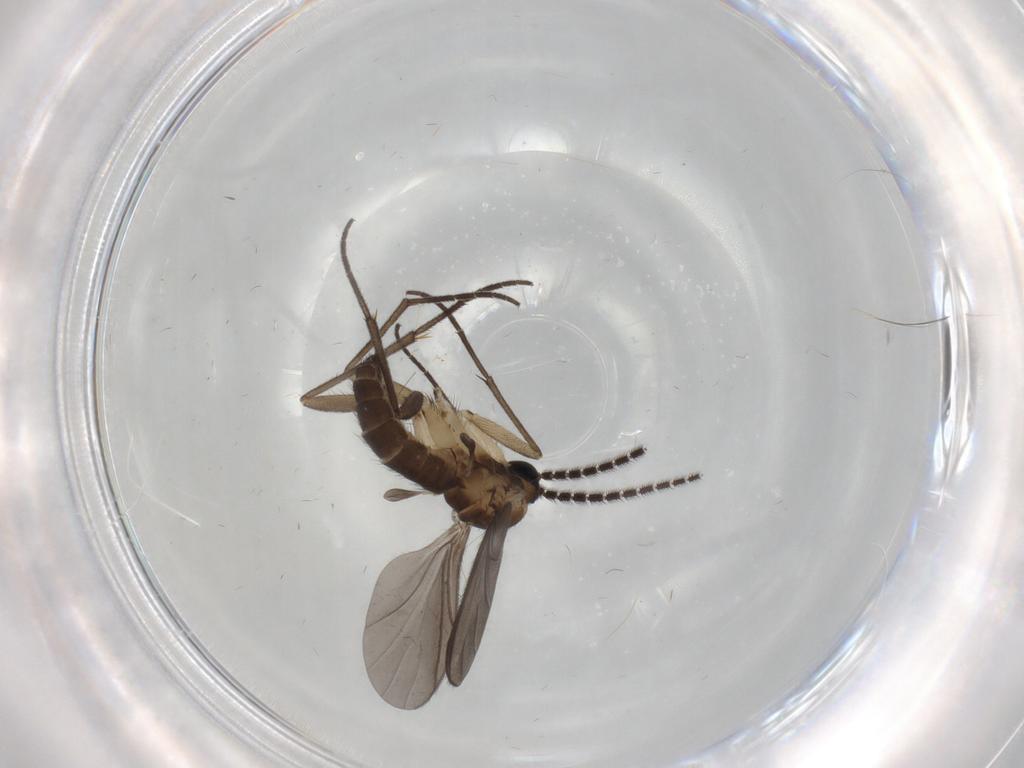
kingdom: Animalia
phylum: Arthropoda
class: Insecta
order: Diptera
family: Sciaridae
